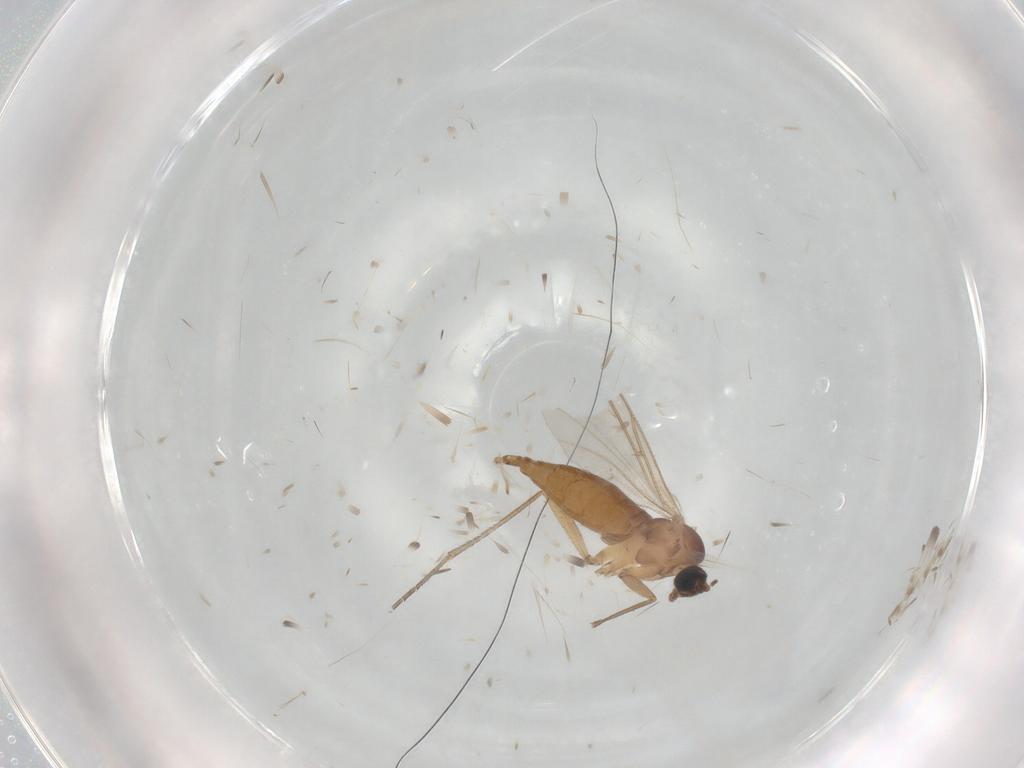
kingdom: Animalia
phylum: Arthropoda
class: Insecta
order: Diptera
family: Sciaridae
